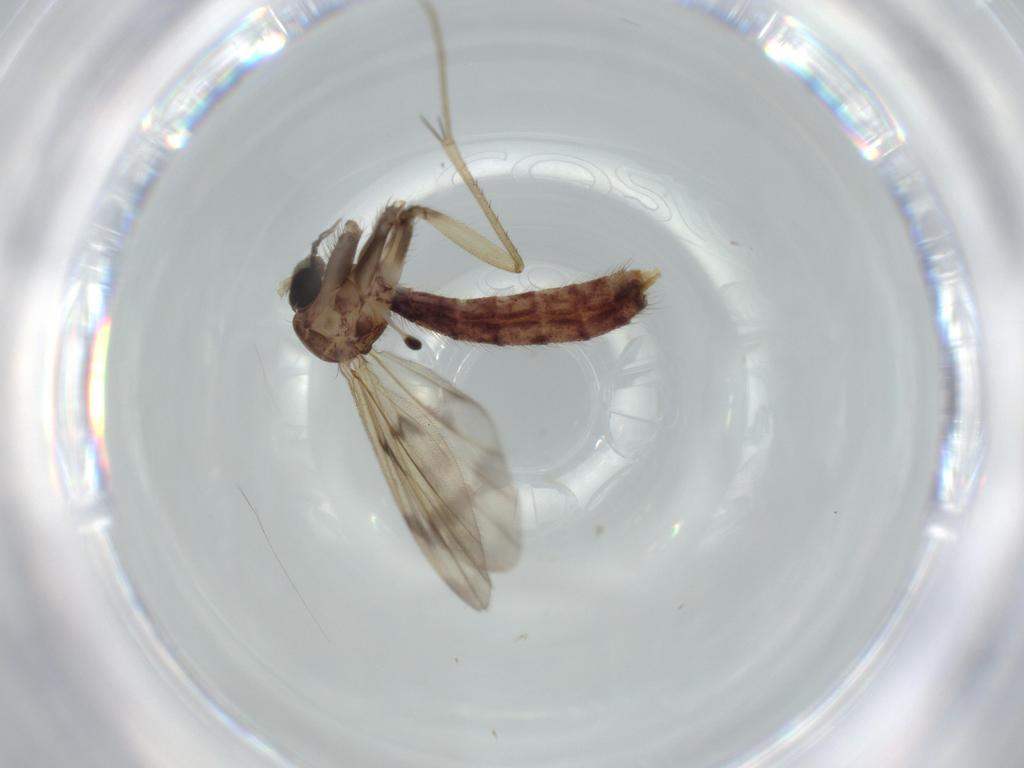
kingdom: Animalia
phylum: Arthropoda
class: Insecta
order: Diptera
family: Mycetophilidae
